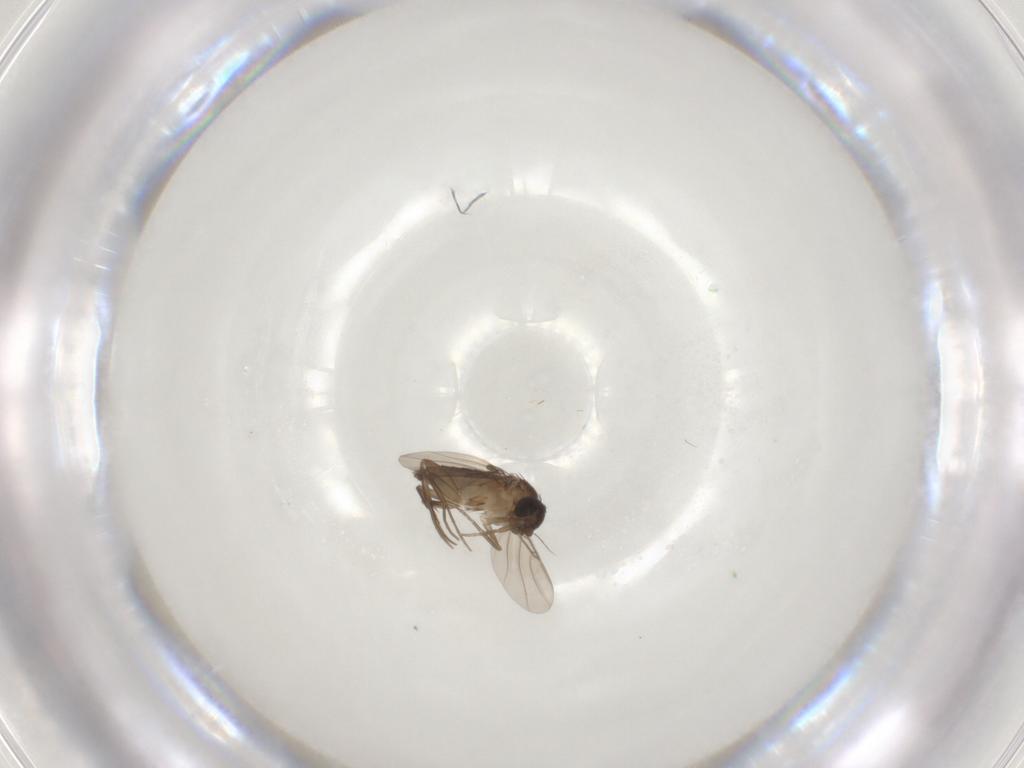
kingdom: Animalia
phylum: Arthropoda
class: Insecta
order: Diptera
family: Phoridae
